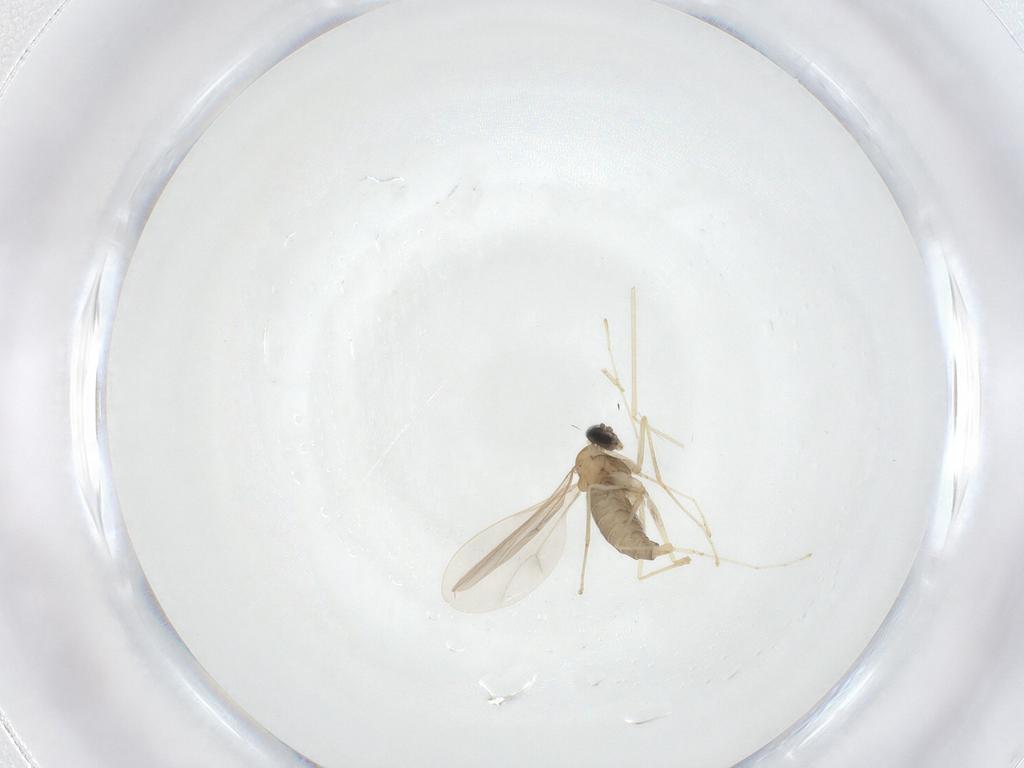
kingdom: Animalia
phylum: Arthropoda
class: Insecta
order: Diptera
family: Cecidomyiidae
